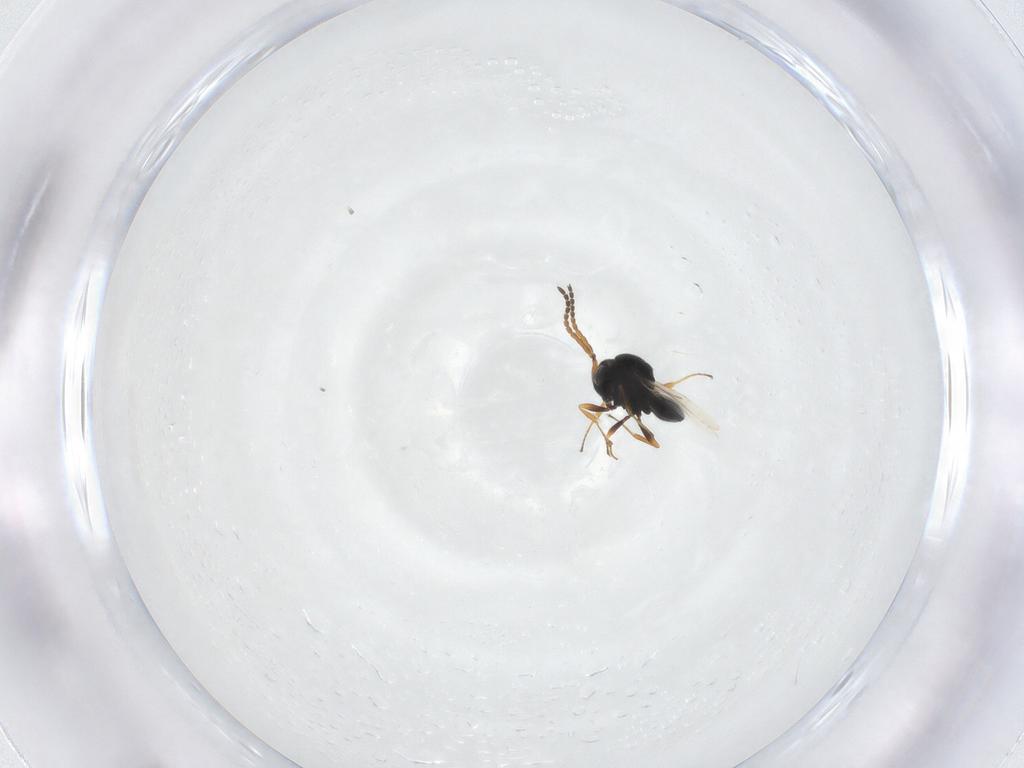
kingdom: Animalia
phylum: Arthropoda
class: Insecta
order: Hymenoptera
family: Scelionidae
